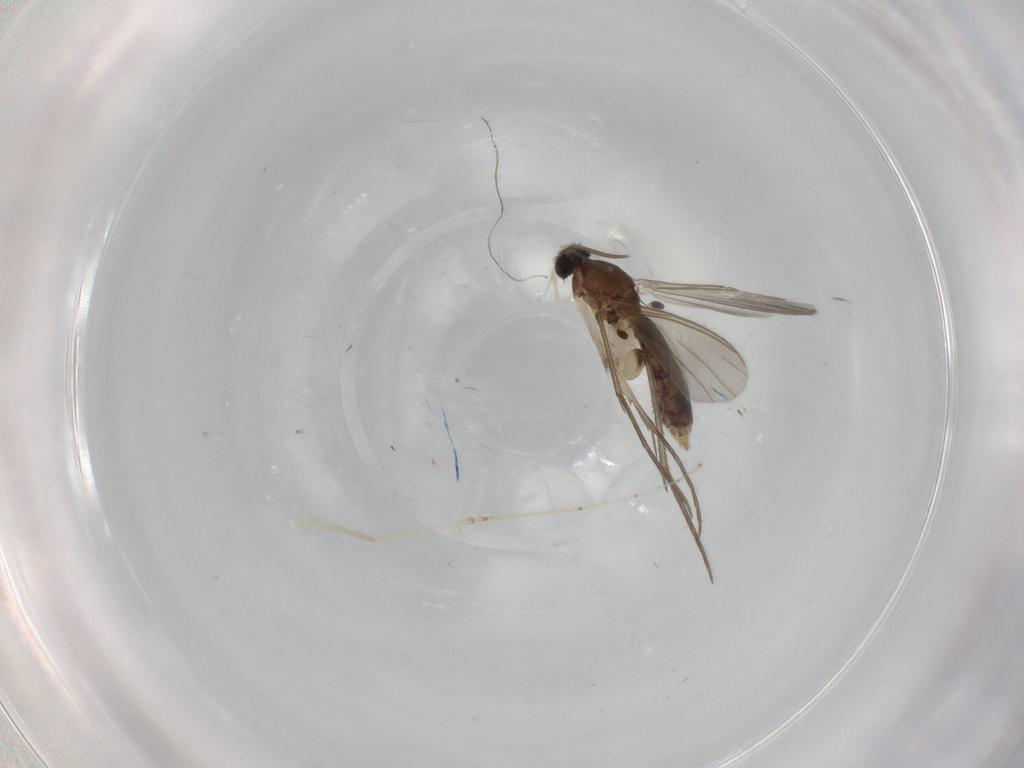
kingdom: Animalia
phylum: Arthropoda
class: Insecta
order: Diptera
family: Mycetophilidae
